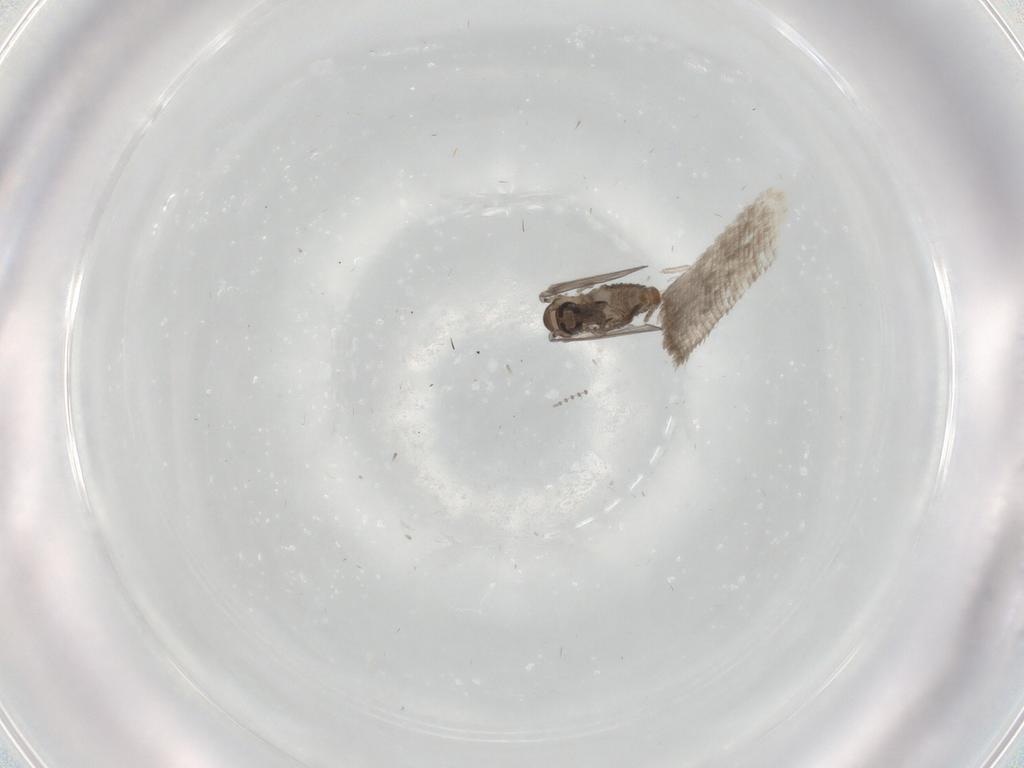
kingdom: Animalia
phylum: Arthropoda
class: Insecta
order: Diptera
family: Psychodidae
